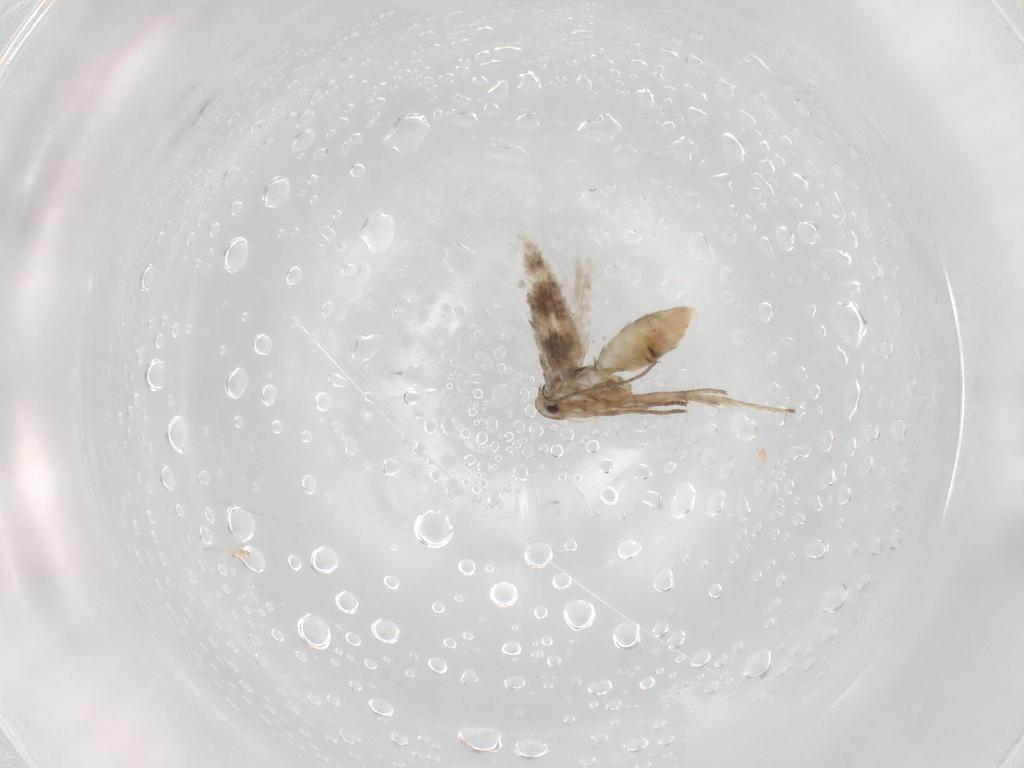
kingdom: Animalia
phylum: Arthropoda
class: Insecta
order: Lepidoptera
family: Nymphalidae
